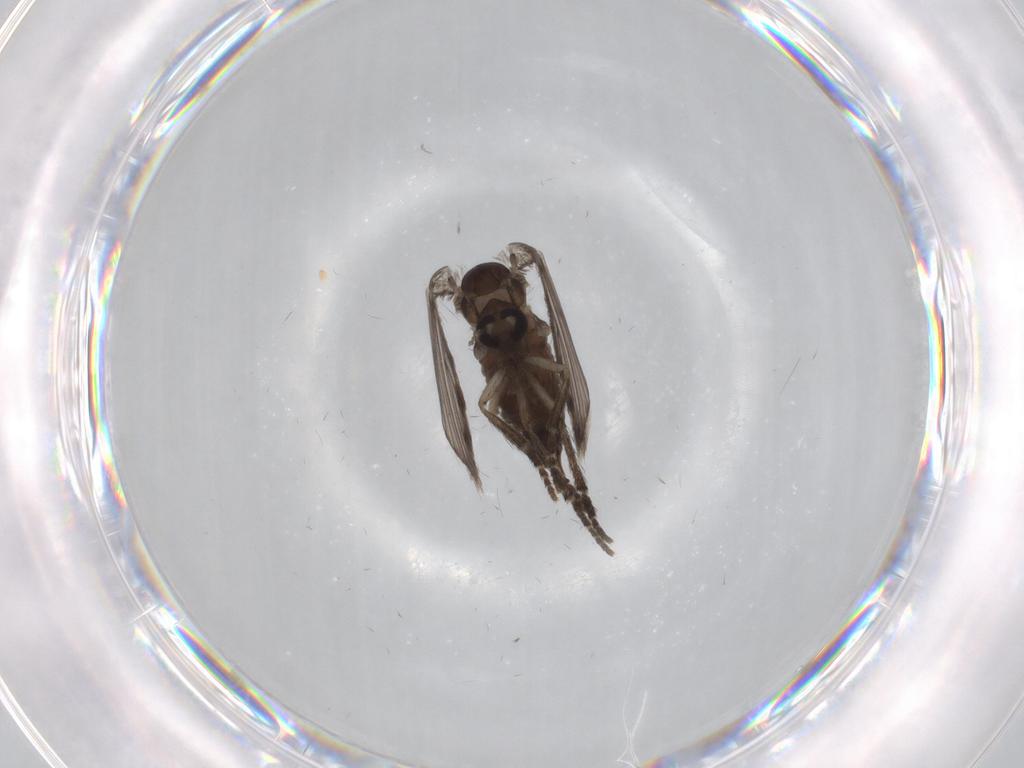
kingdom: Animalia
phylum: Arthropoda
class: Insecta
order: Diptera
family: Psychodidae
